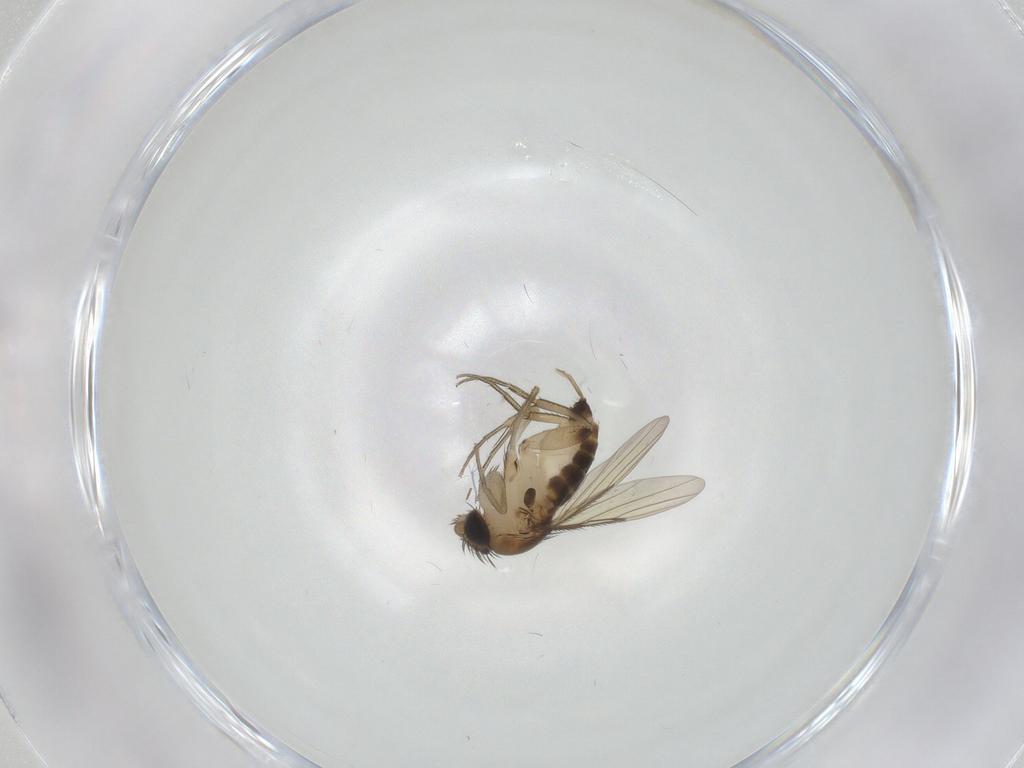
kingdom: Animalia
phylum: Arthropoda
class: Insecta
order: Diptera
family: Phoridae
